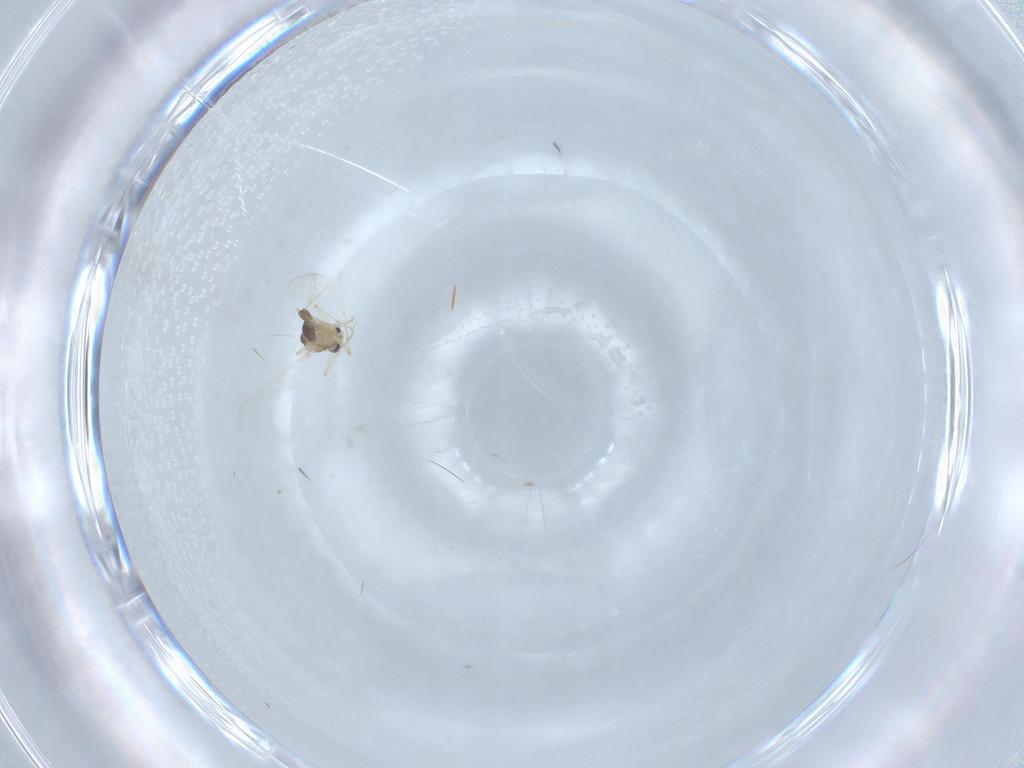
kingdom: Animalia
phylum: Arthropoda
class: Insecta
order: Diptera
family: Chironomidae
